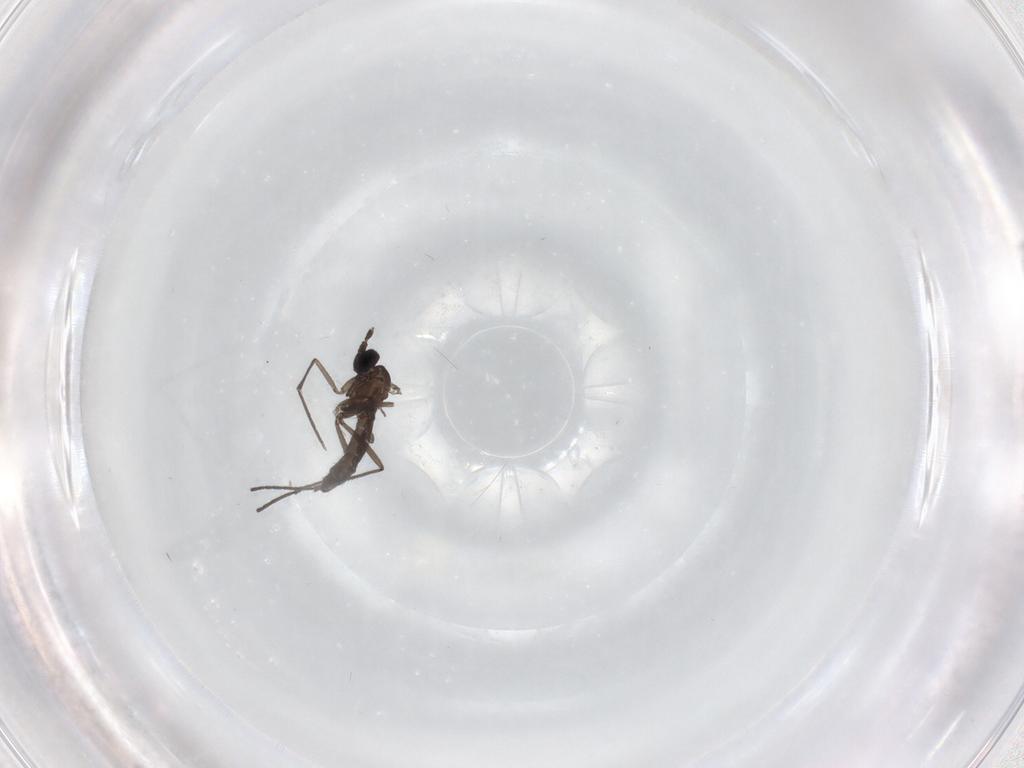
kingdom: Animalia
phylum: Arthropoda
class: Insecta
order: Diptera
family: Sciaridae
